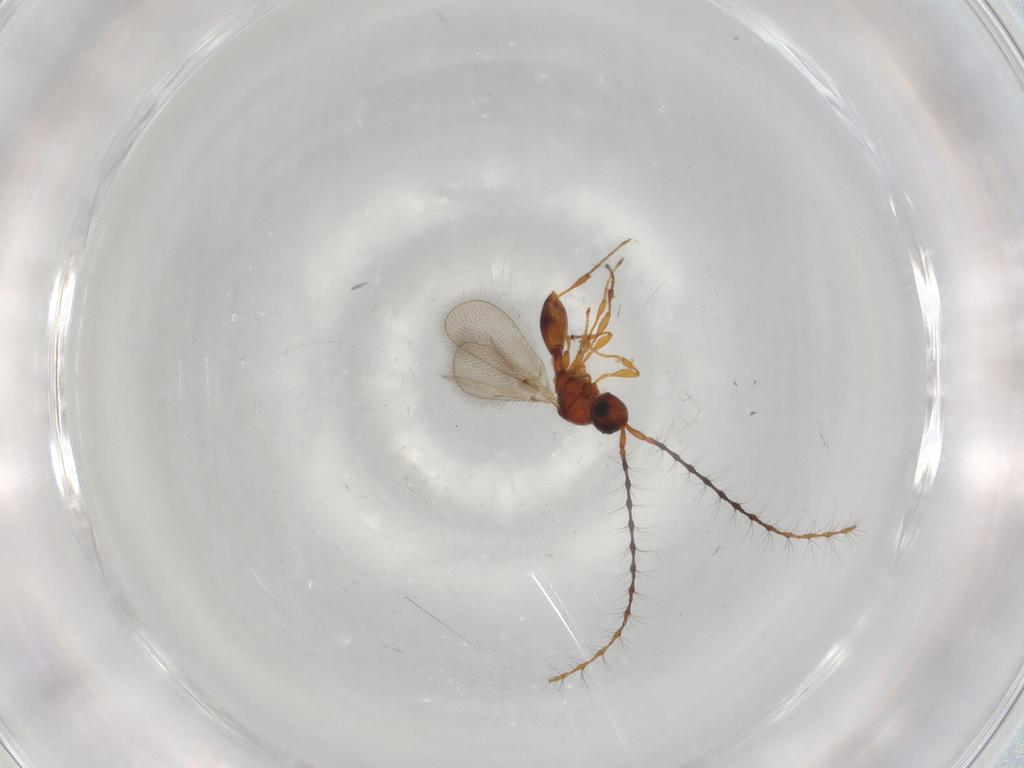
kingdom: Animalia
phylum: Arthropoda
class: Insecta
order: Hymenoptera
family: Diapriidae
